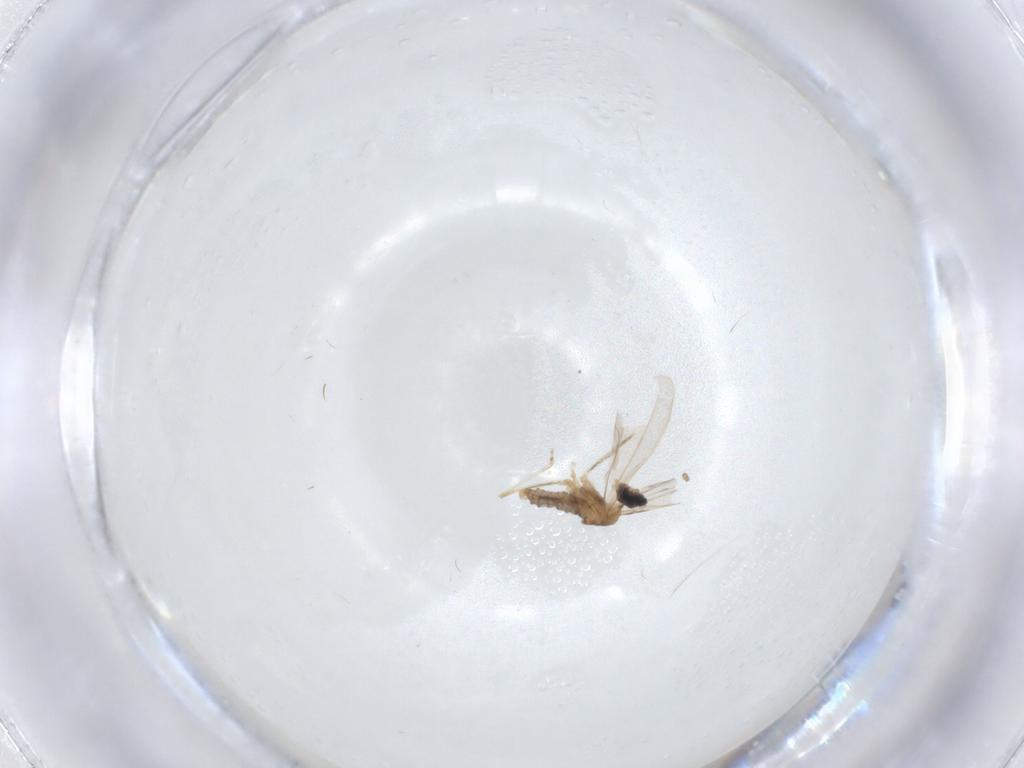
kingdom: Animalia
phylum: Arthropoda
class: Insecta
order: Diptera
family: Cecidomyiidae
